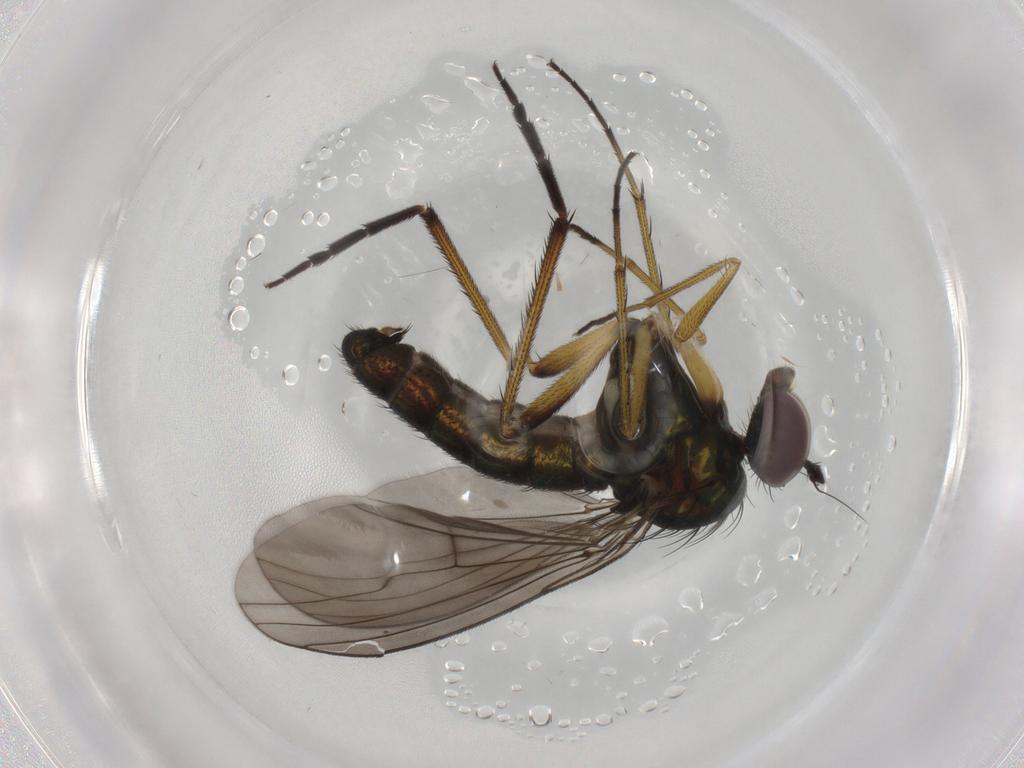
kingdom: Animalia
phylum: Arthropoda
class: Insecta
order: Diptera
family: Dolichopodidae
